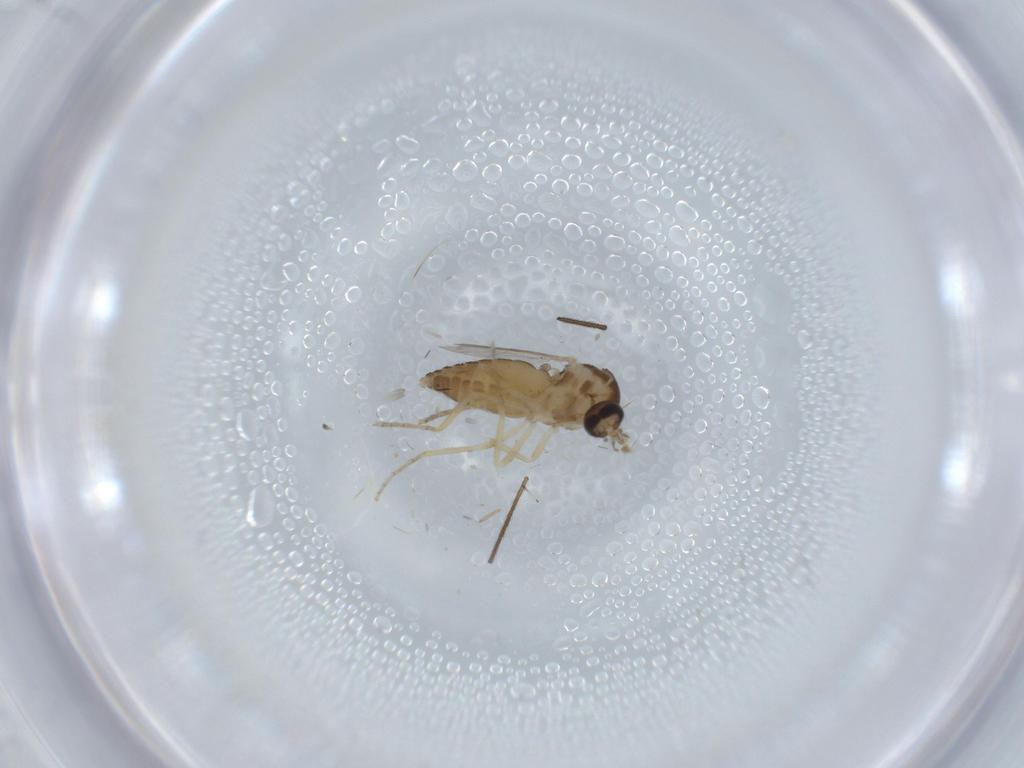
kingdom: Animalia
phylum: Arthropoda
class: Insecta
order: Diptera
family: Ceratopogonidae
